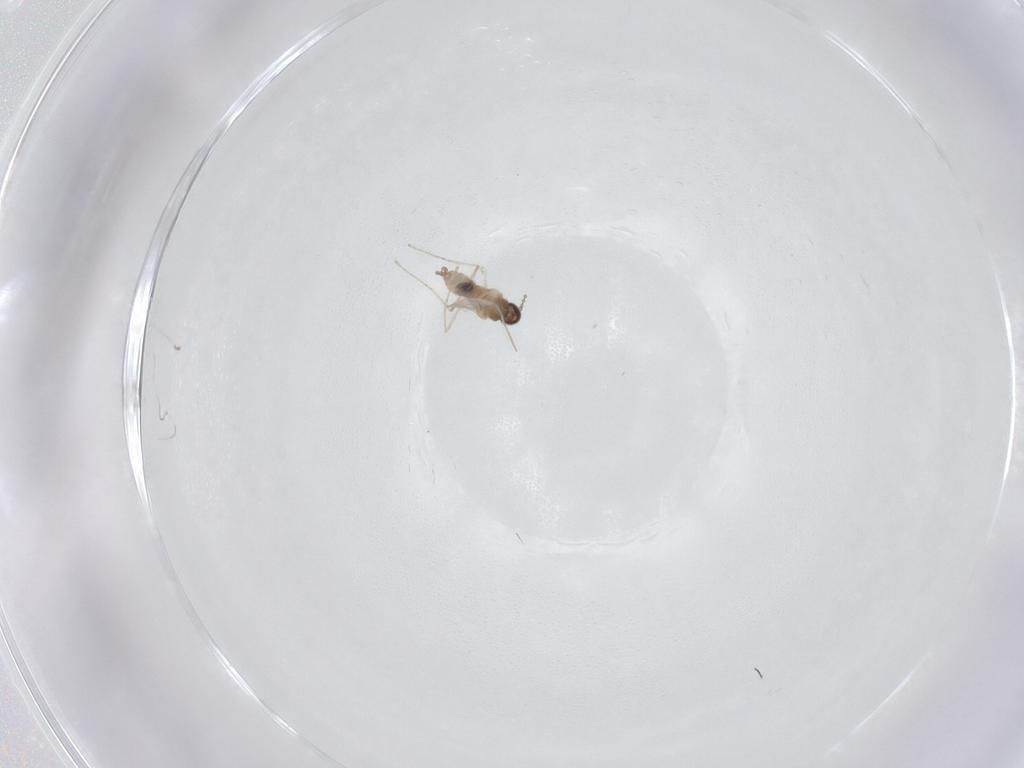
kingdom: Animalia
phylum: Arthropoda
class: Insecta
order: Diptera
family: Cecidomyiidae
